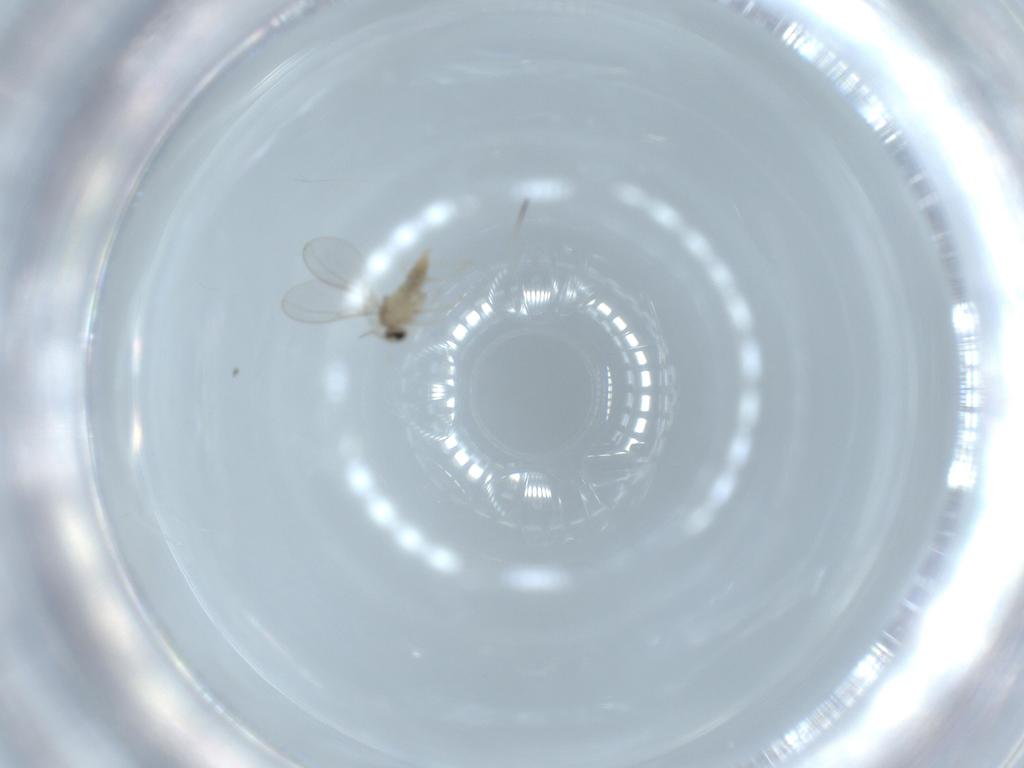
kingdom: Animalia
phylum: Arthropoda
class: Insecta
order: Diptera
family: Cecidomyiidae
